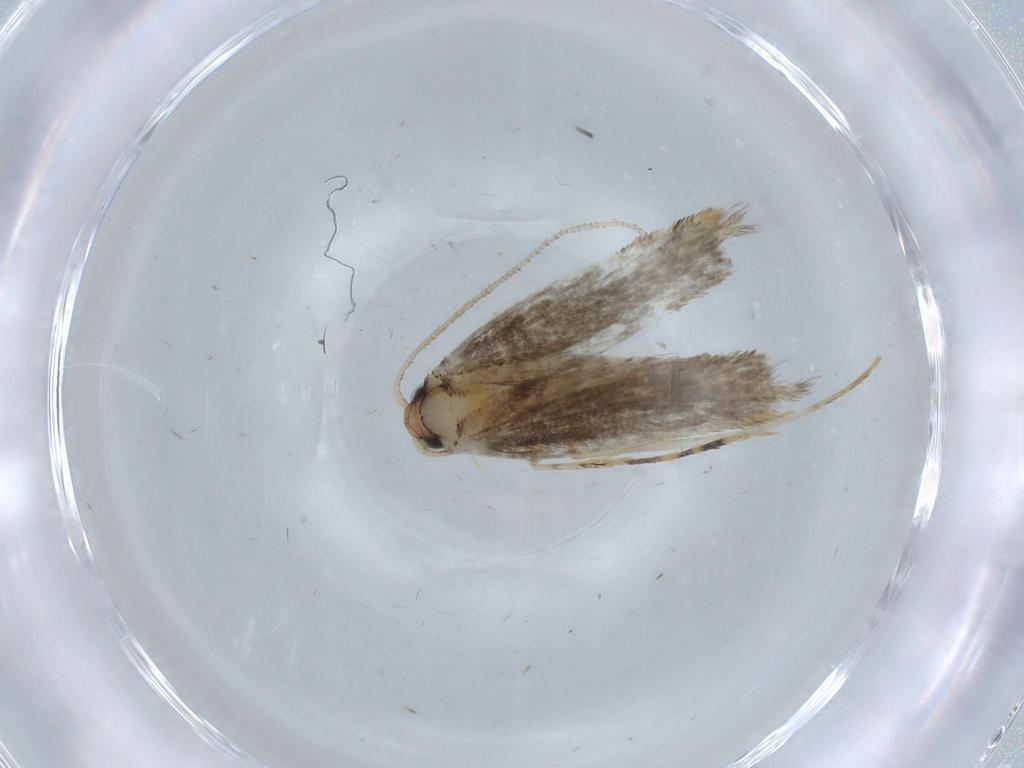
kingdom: Animalia
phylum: Arthropoda
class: Insecta
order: Lepidoptera
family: Tineidae
